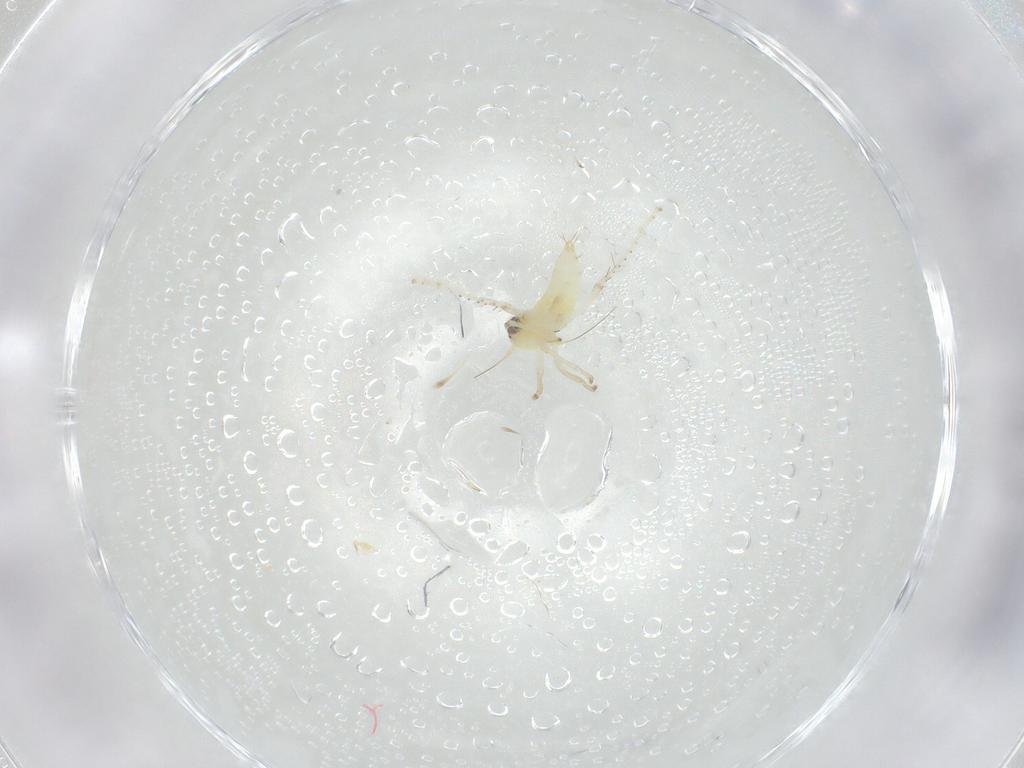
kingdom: Animalia
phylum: Arthropoda
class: Insecta
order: Hemiptera
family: Cicadellidae
